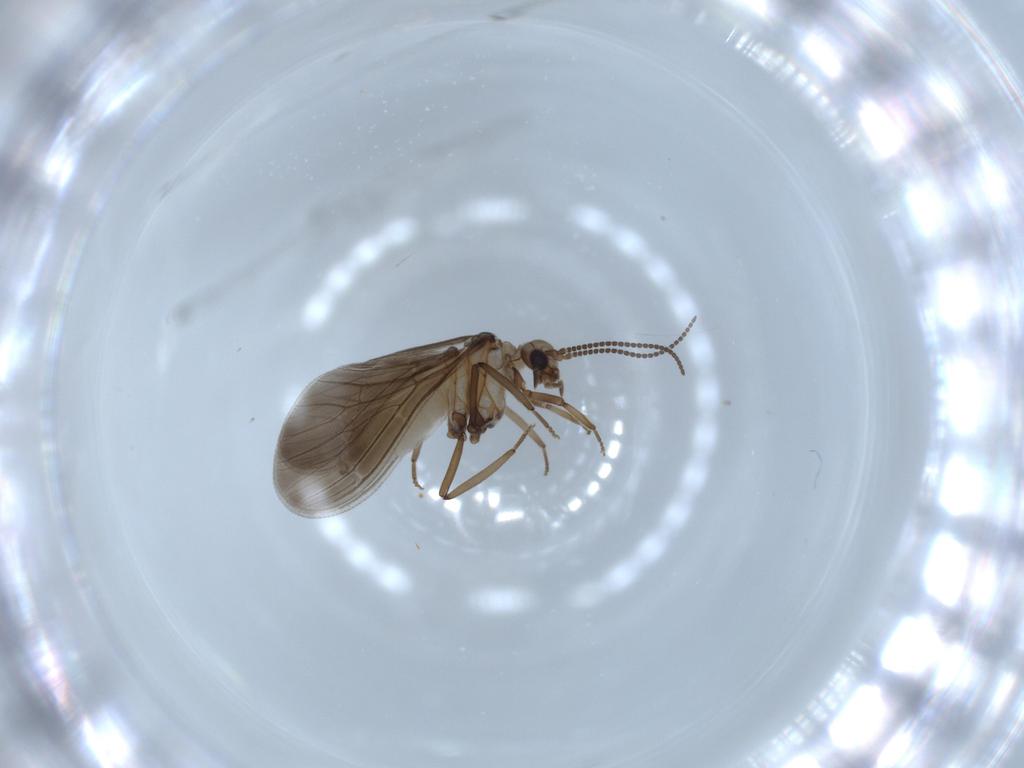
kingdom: Animalia
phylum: Arthropoda
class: Insecta
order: Neuroptera
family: Coniopterygidae
